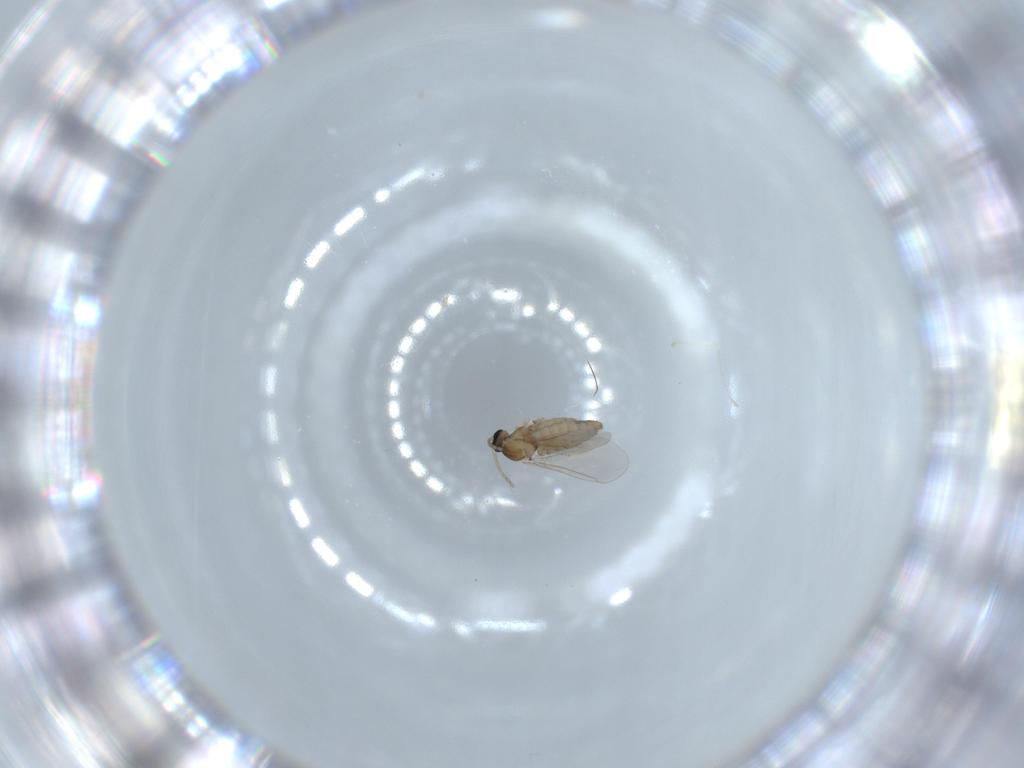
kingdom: Animalia
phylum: Arthropoda
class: Insecta
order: Diptera
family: Cecidomyiidae
